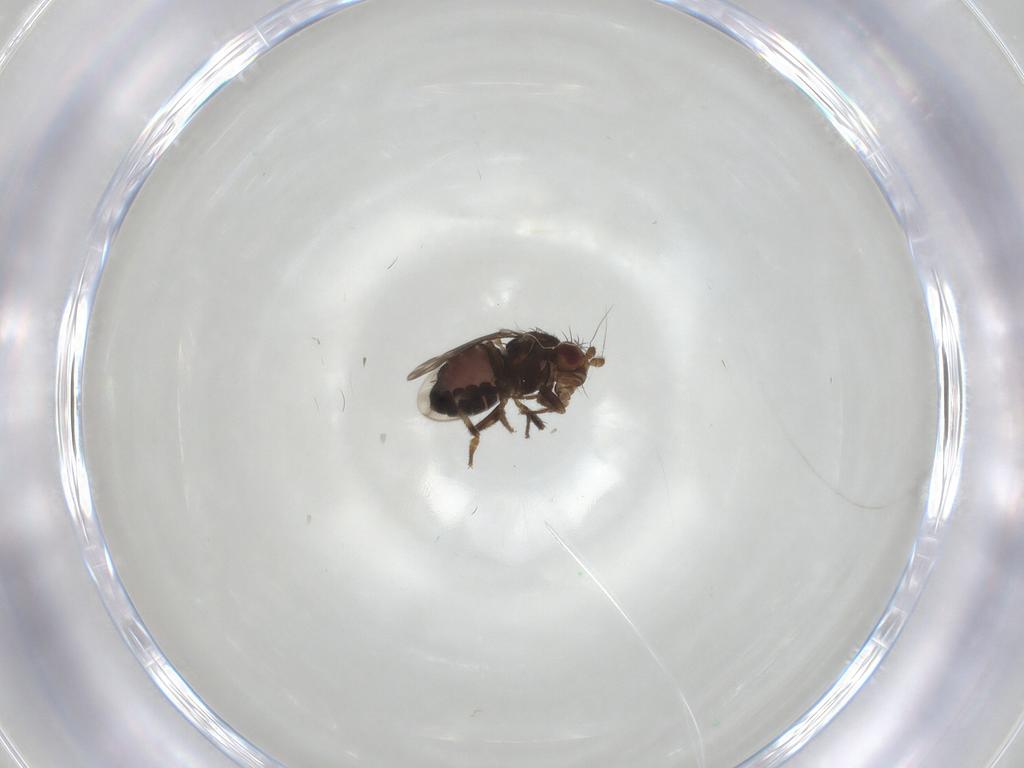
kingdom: Animalia
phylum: Arthropoda
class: Insecta
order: Diptera
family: Sphaeroceridae
